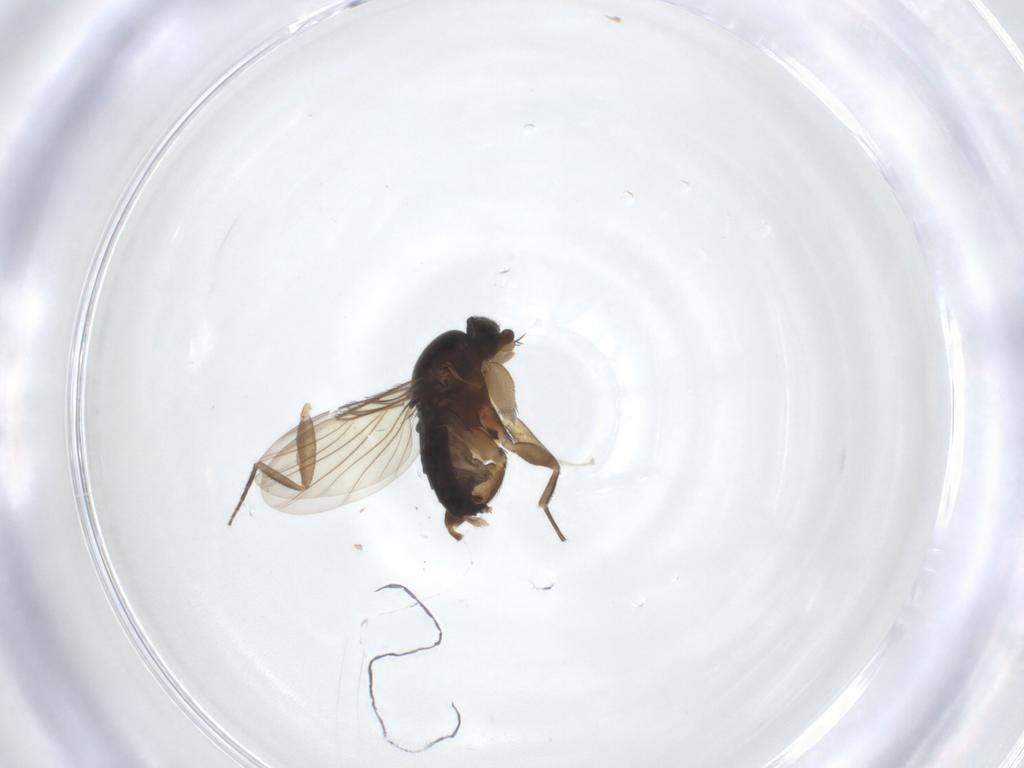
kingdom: Animalia
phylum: Arthropoda
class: Insecta
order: Diptera
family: Phoridae
